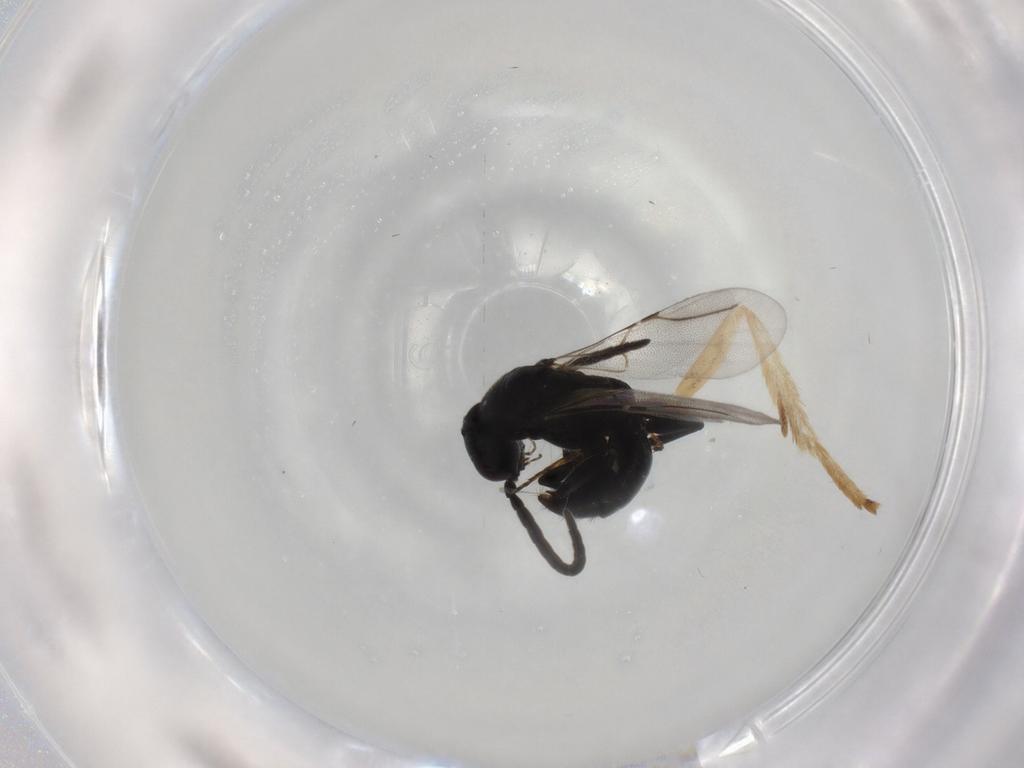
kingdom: Animalia
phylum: Arthropoda
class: Insecta
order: Hymenoptera
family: Bethylidae
